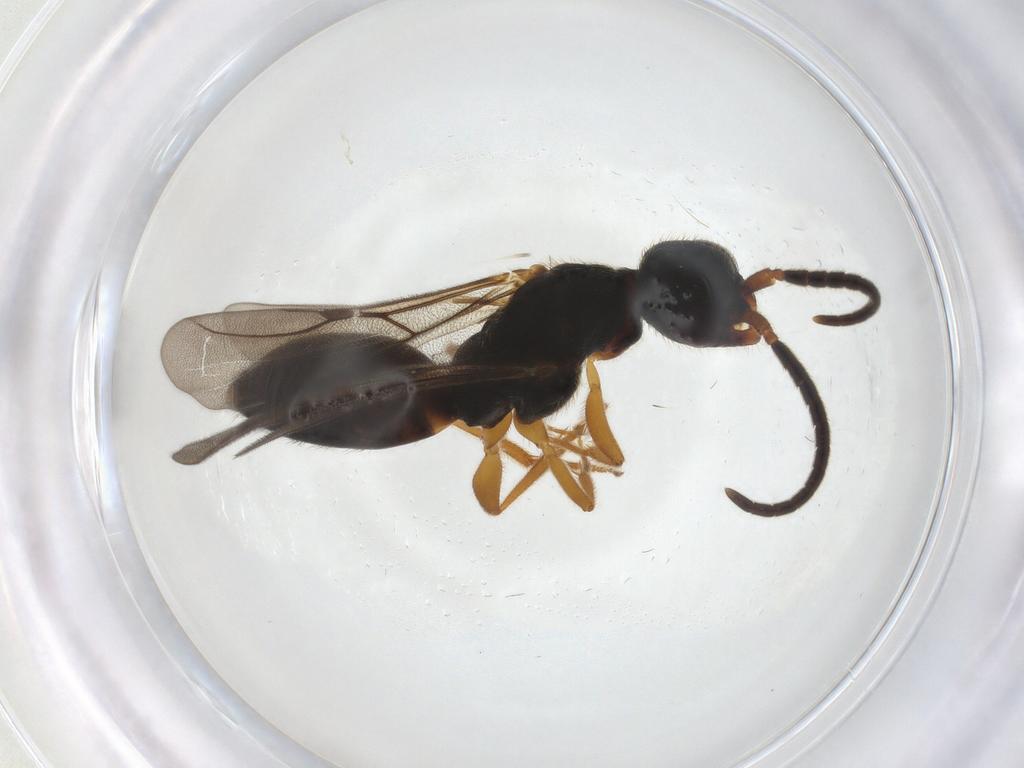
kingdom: Animalia
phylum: Arthropoda
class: Insecta
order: Hymenoptera
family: Bethylidae
